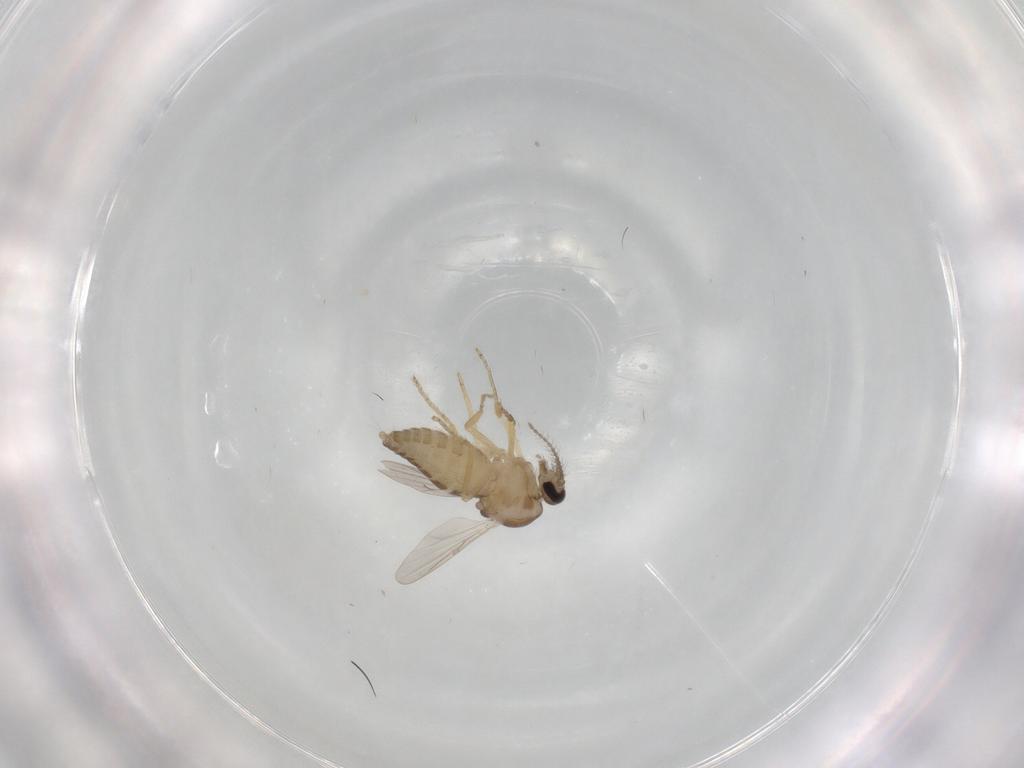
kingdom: Animalia
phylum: Arthropoda
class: Insecta
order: Diptera
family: Ceratopogonidae
